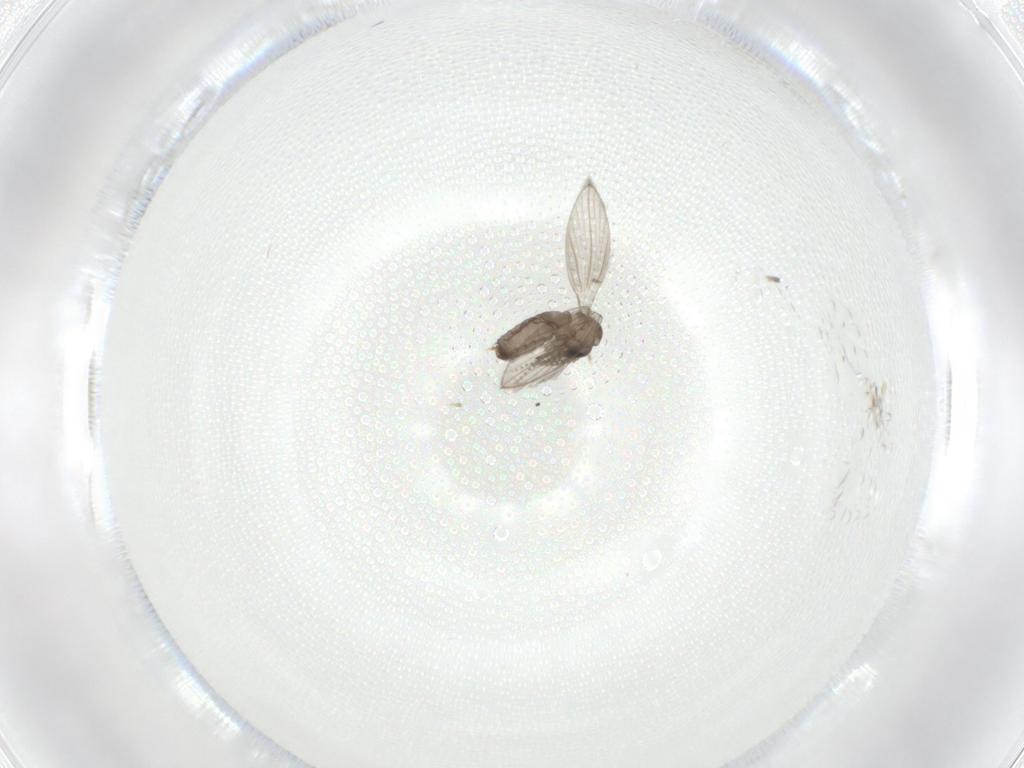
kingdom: Animalia
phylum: Arthropoda
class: Insecta
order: Diptera
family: Psychodidae
